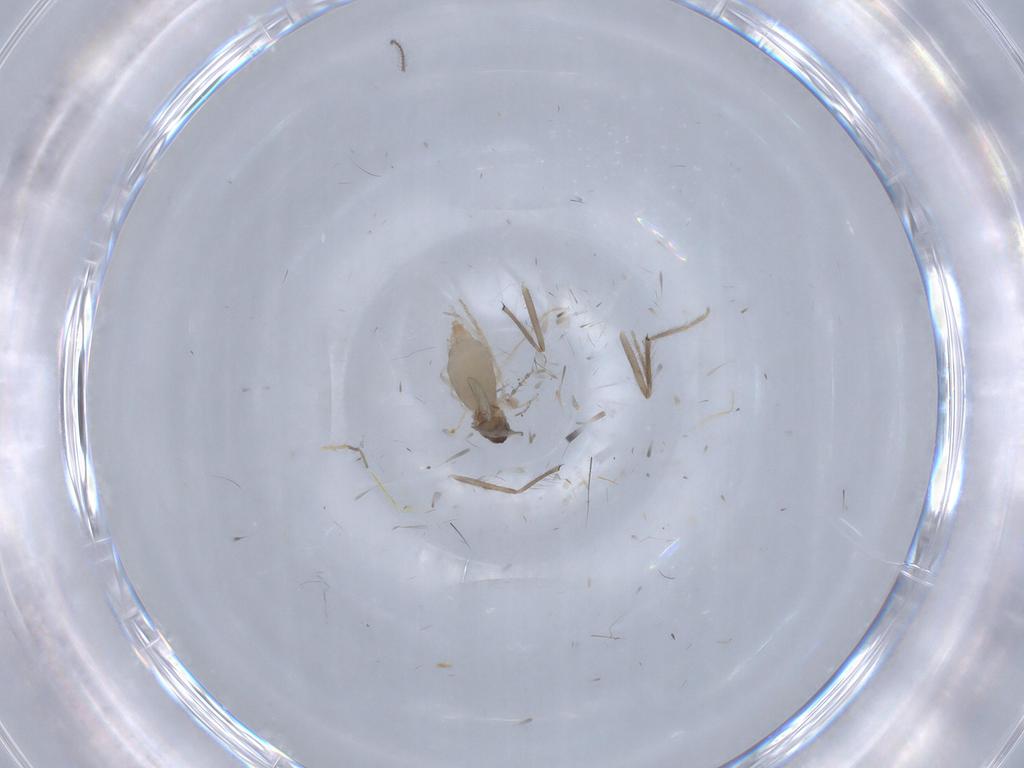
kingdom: Animalia
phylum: Arthropoda
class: Insecta
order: Diptera
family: Cecidomyiidae
